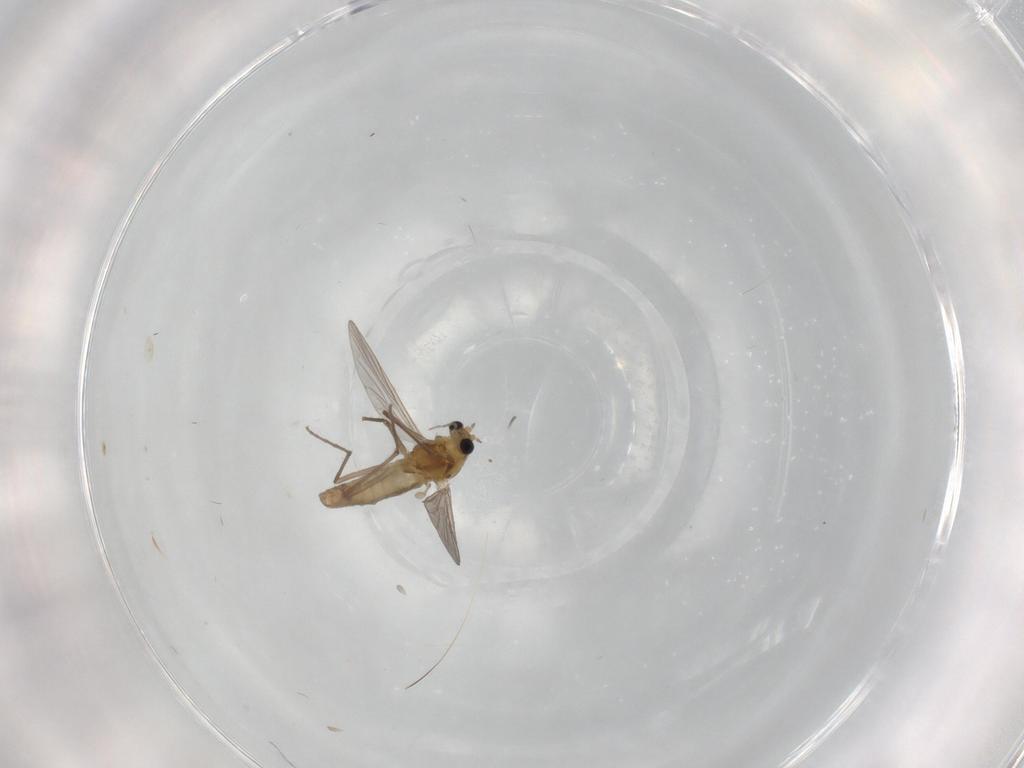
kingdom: Animalia
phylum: Arthropoda
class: Insecta
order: Diptera
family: Chironomidae
